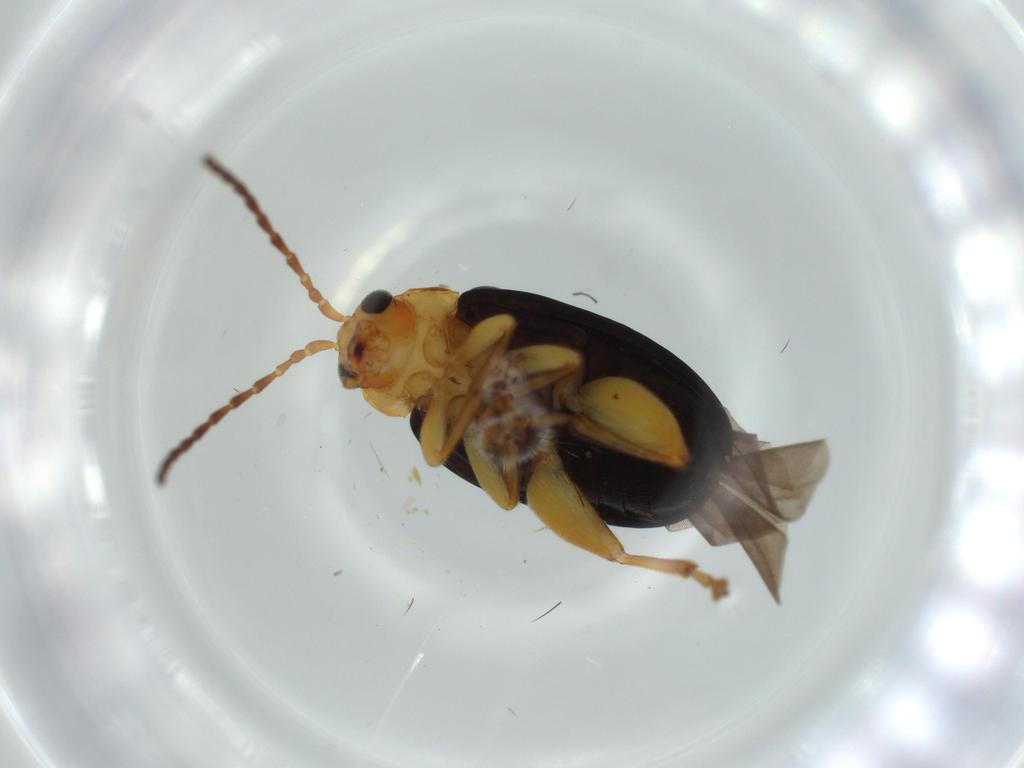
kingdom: Animalia
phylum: Arthropoda
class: Insecta
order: Coleoptera
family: Chrysomelidae
